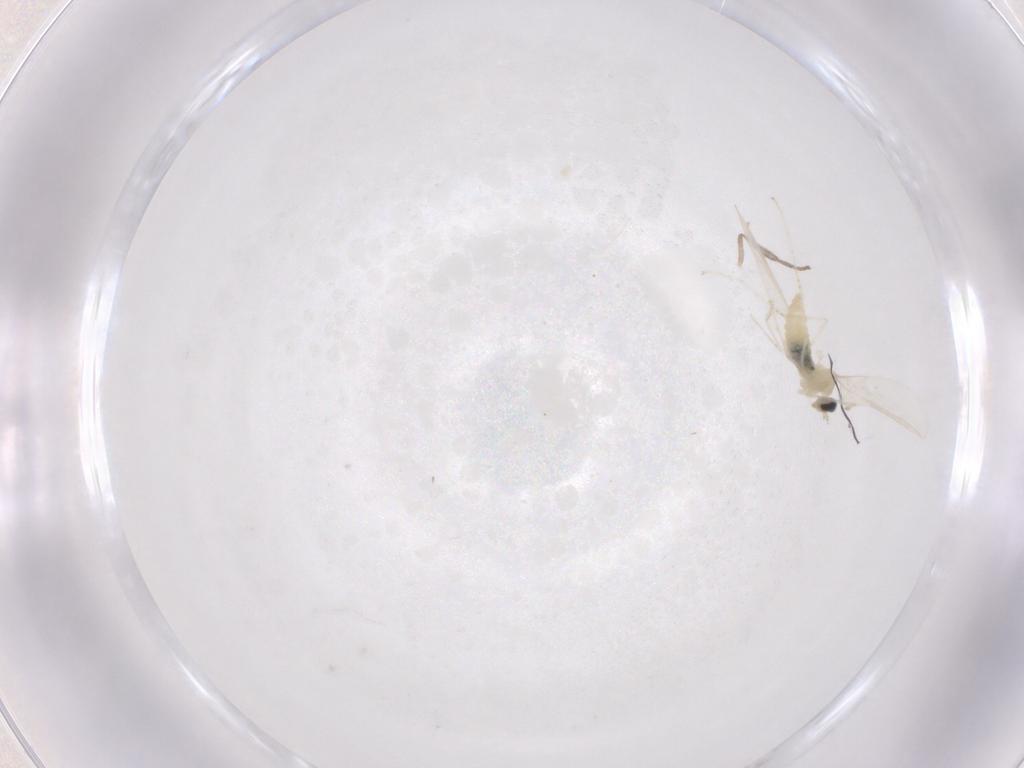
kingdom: Animalia
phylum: Arthropoda
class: Insecta
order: Diptera
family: Cecidomyiidae
